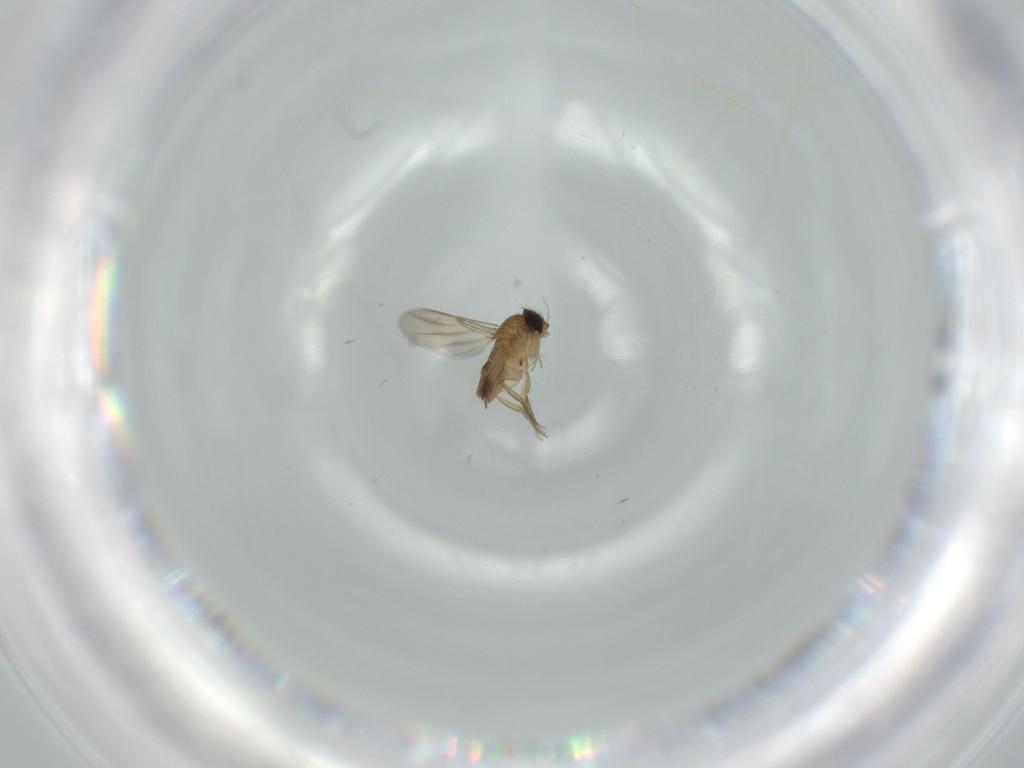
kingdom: Animalia
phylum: Arthropoda
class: Insecta
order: Diptera
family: Phoridae
